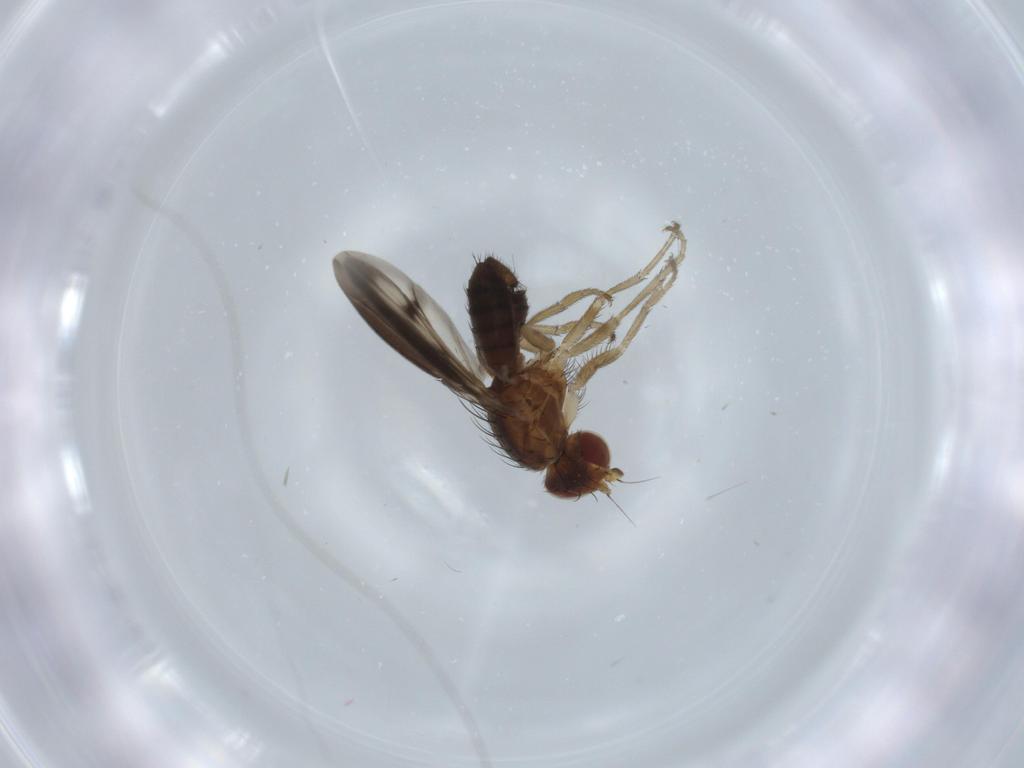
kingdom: Animalia
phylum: Arthropoda
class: Insecta
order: Diptera
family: Heleomyzidae
